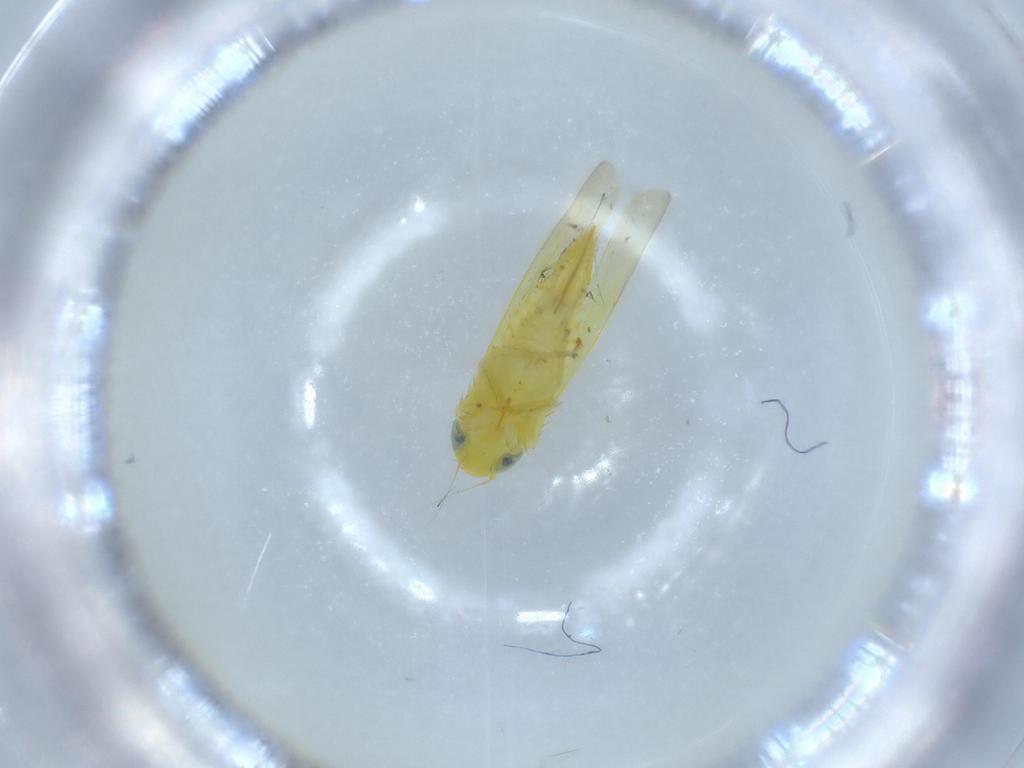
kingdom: Animalia
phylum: Arthropoda
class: Insecta
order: Hemiptera
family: Cicadellidae
